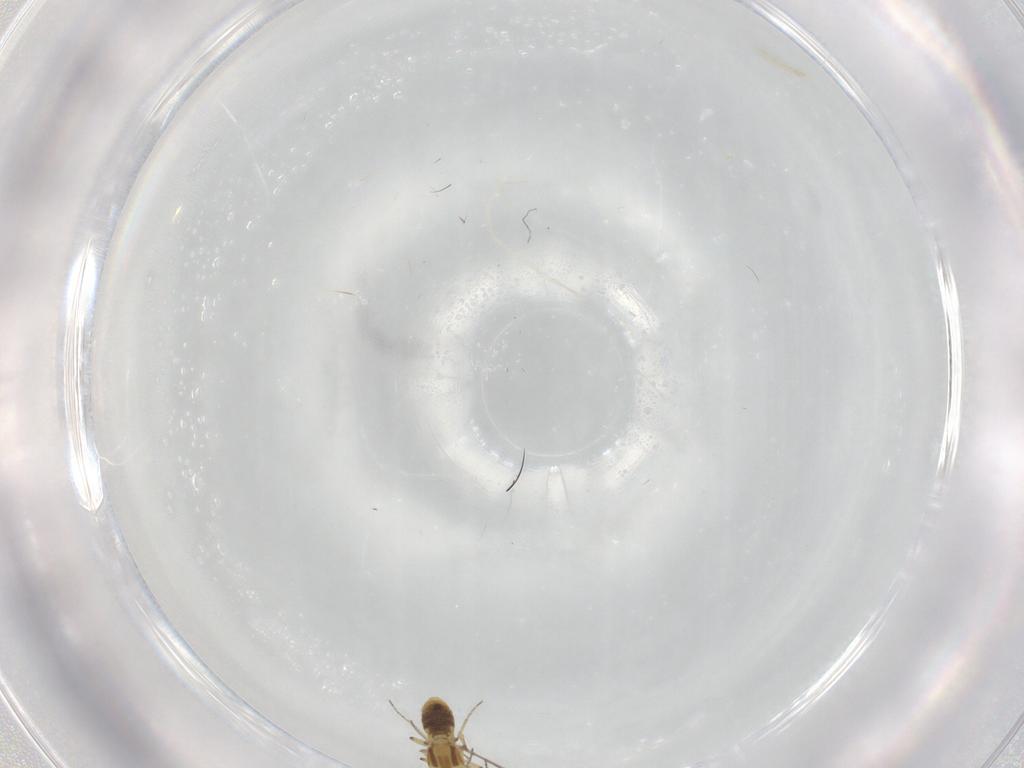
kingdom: Animalia
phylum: Arthropoda
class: Insecta
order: Diptera
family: Ceratopogonidae
